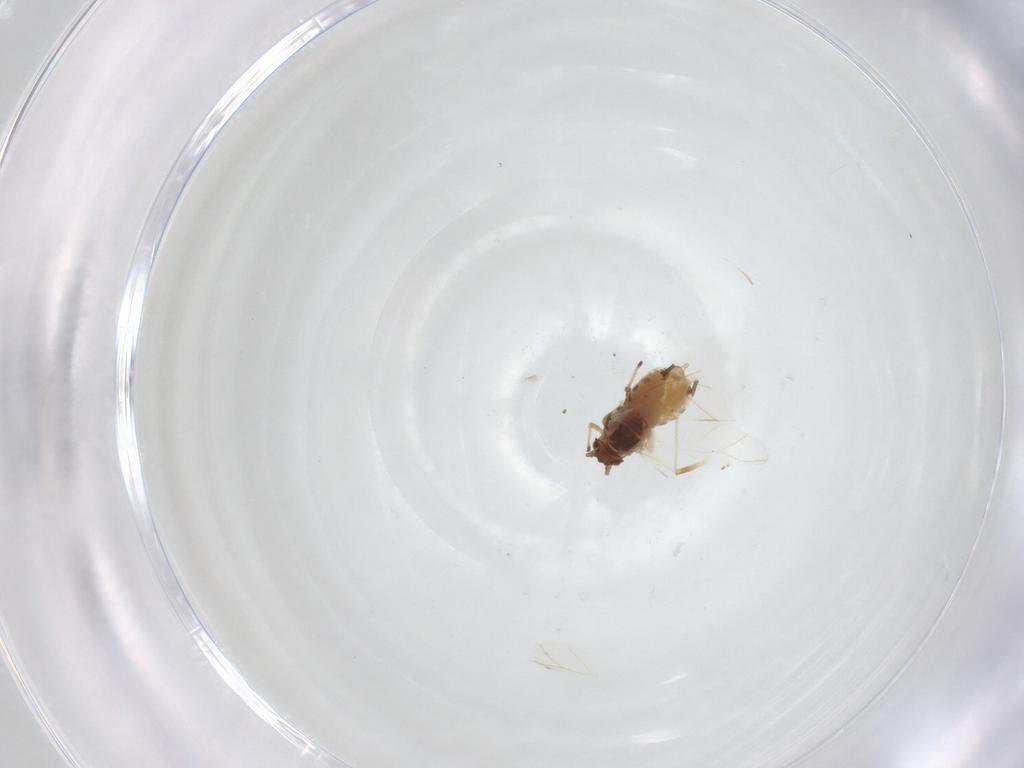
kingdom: Animalia
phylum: Arthropoda
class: Insecta
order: Hemiptera
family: Aphididae
